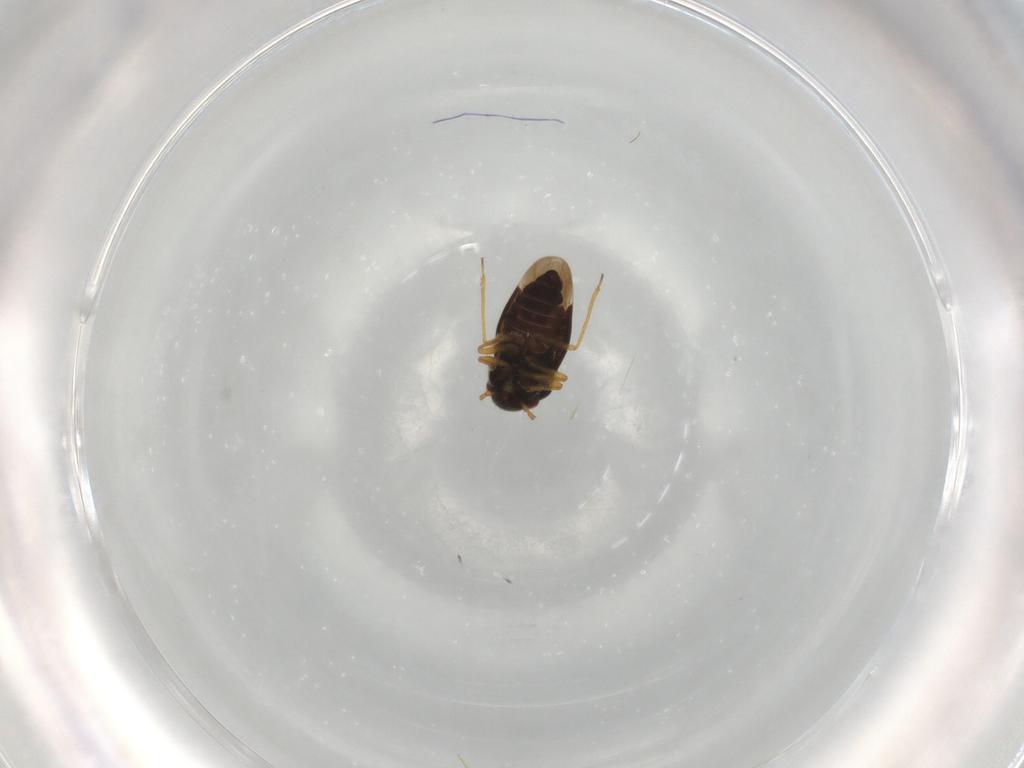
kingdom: Animalia
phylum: Arthropoda
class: Insecta
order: Hemiptera
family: Schizopteridae
